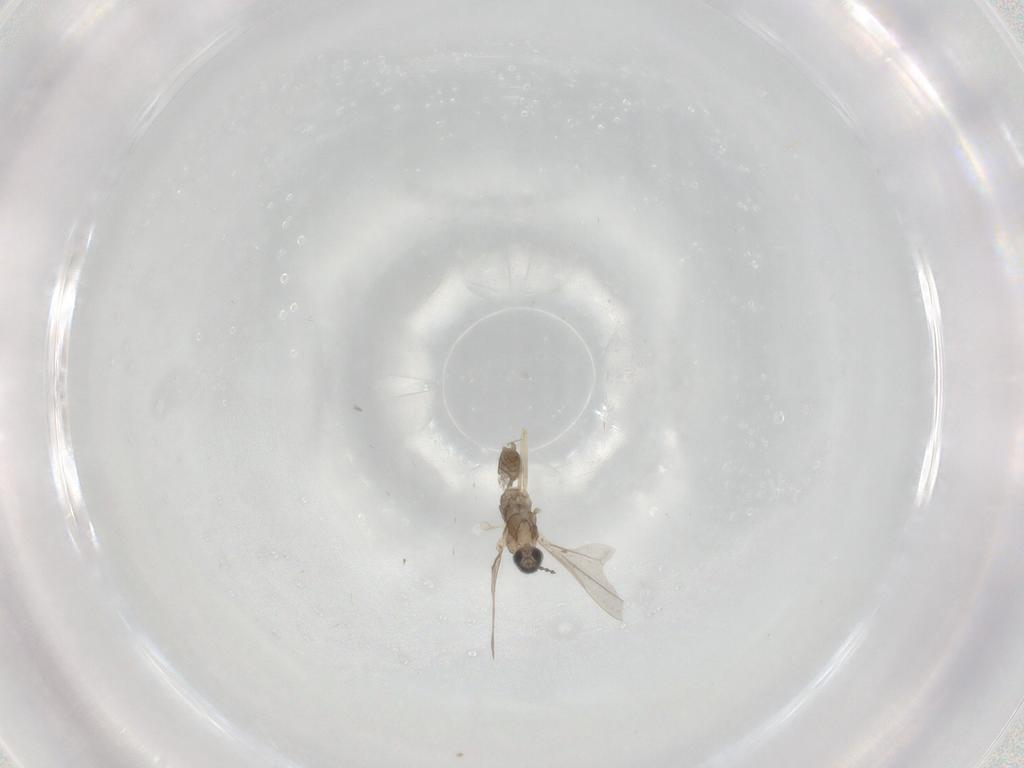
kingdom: Animalia
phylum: Arthropoda
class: Insecta
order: Diptera
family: Cecidomyiidae
